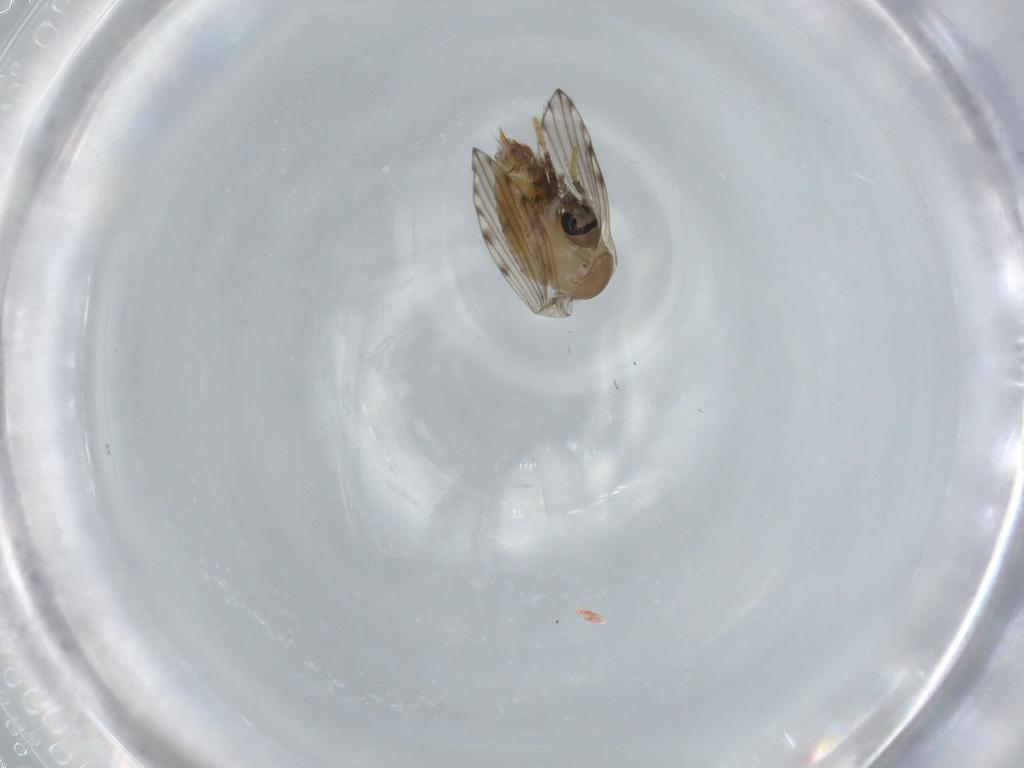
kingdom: Animalia
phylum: Arthropoda
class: Insecta
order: Diptera
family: Psychodidae
